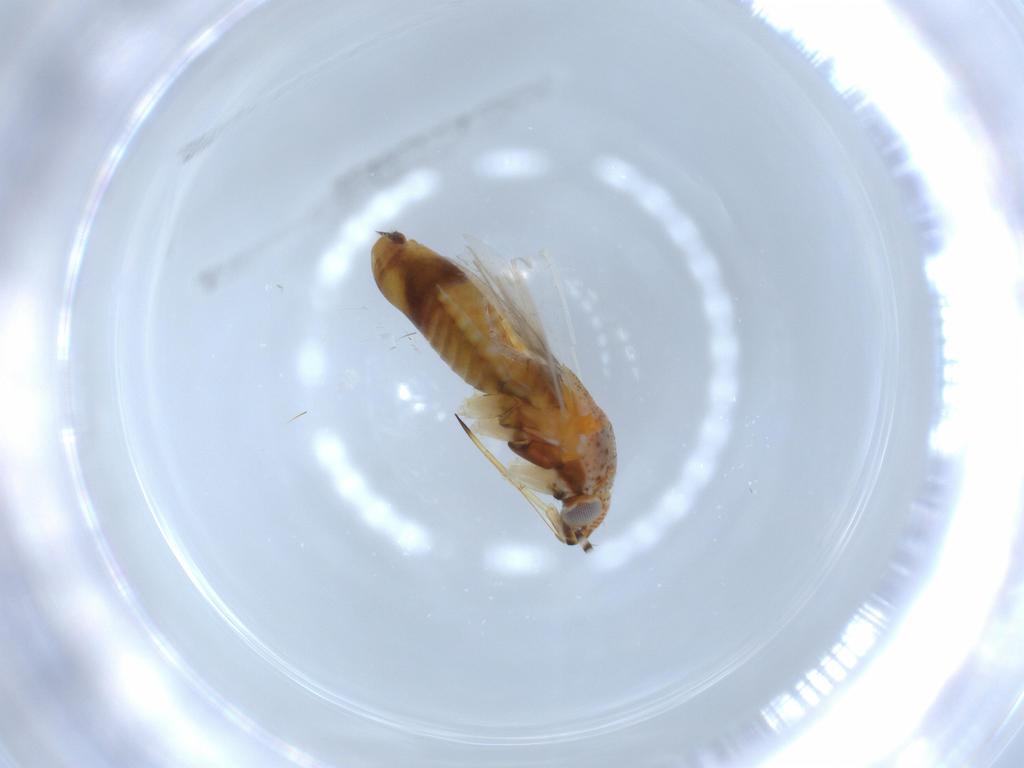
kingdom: Animalia
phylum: Arthropoda
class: Insecta
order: Hemiptera
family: Miridae
